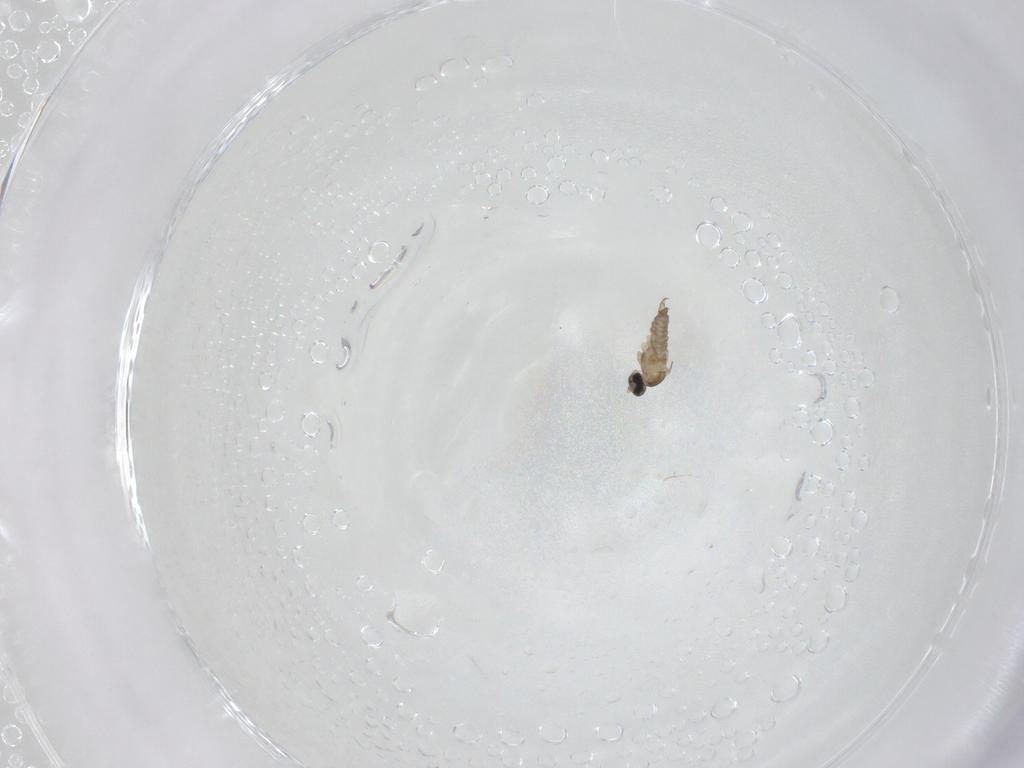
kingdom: Animalia
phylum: Arthropoda
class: Insecta
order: Diptera
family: Cecidomyiidae
